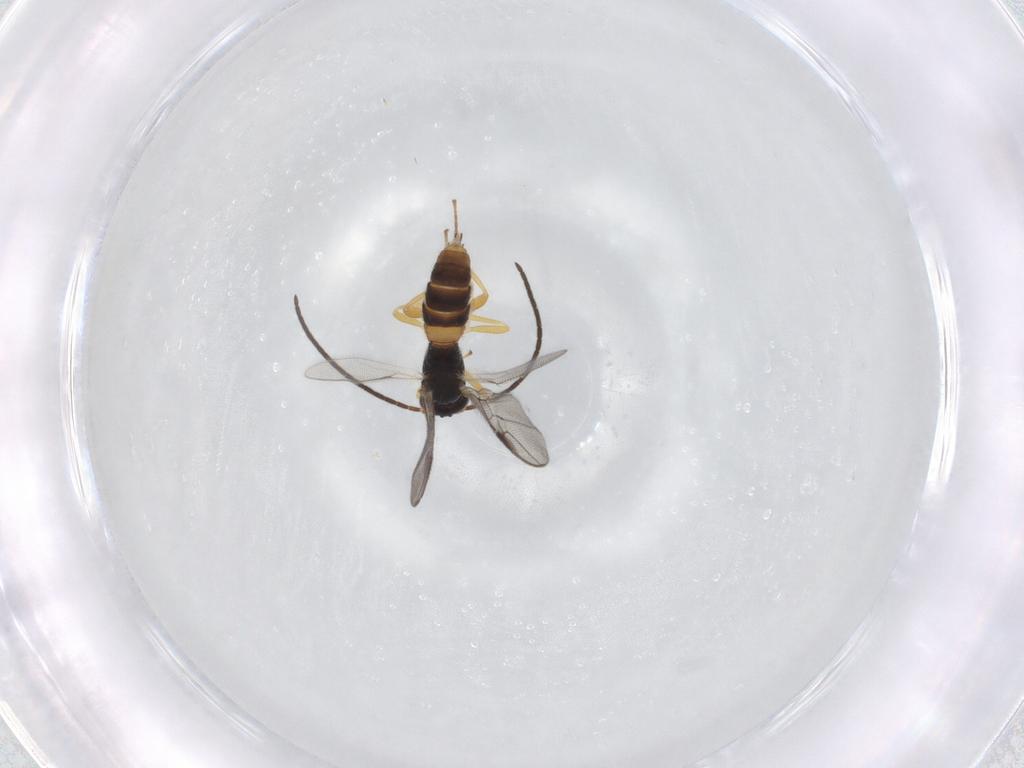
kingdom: Animalia
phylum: Arthropoda
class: Insecta
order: Hymenoptera
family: Braconidae
